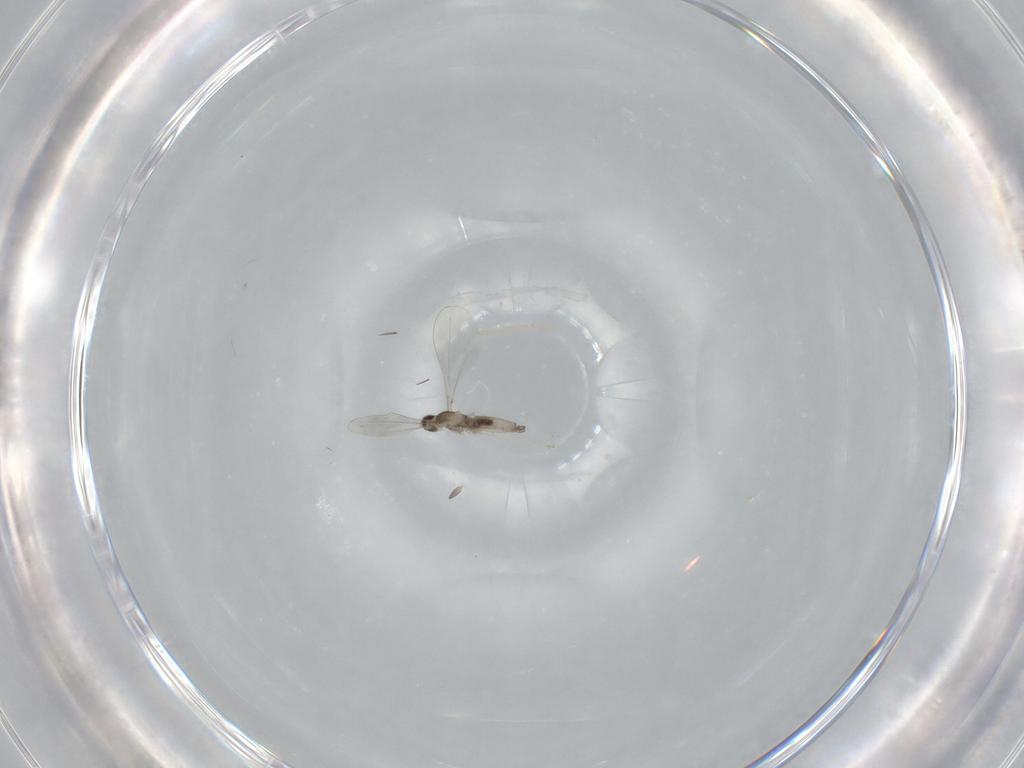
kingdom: Animalia
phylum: Arthropoda
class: Insecta
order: Diptera
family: Cecidomyiidae
